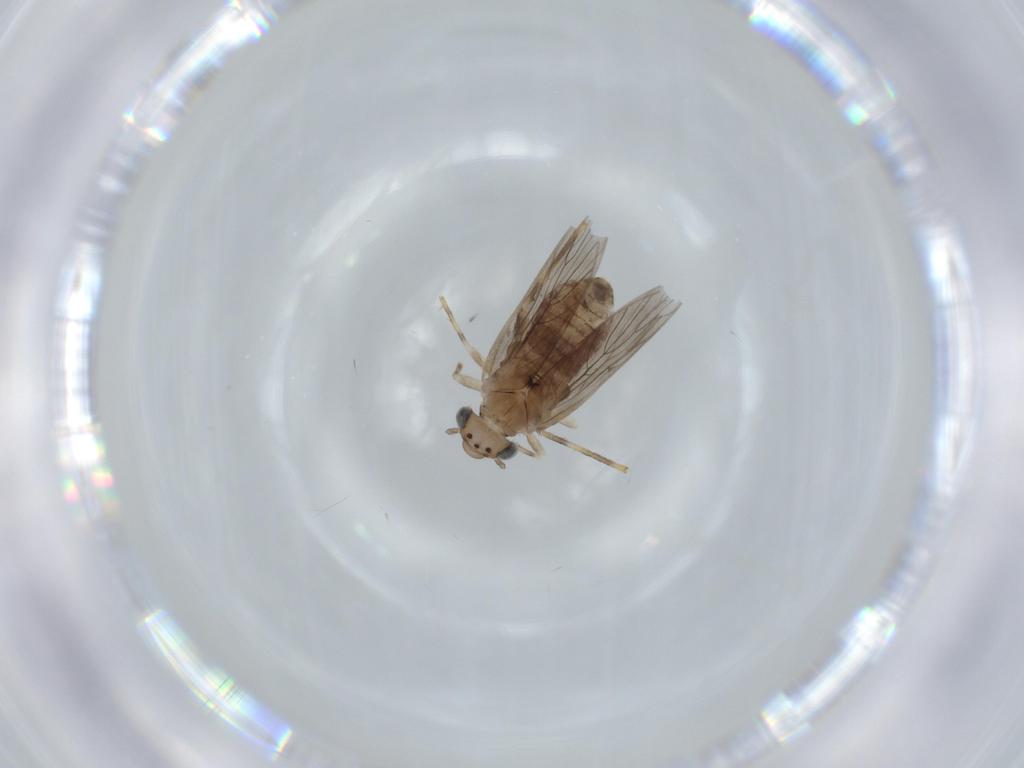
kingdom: Animalia
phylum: Arthropoda
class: Insecta
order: Psocodea
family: Lepidopsocidae
